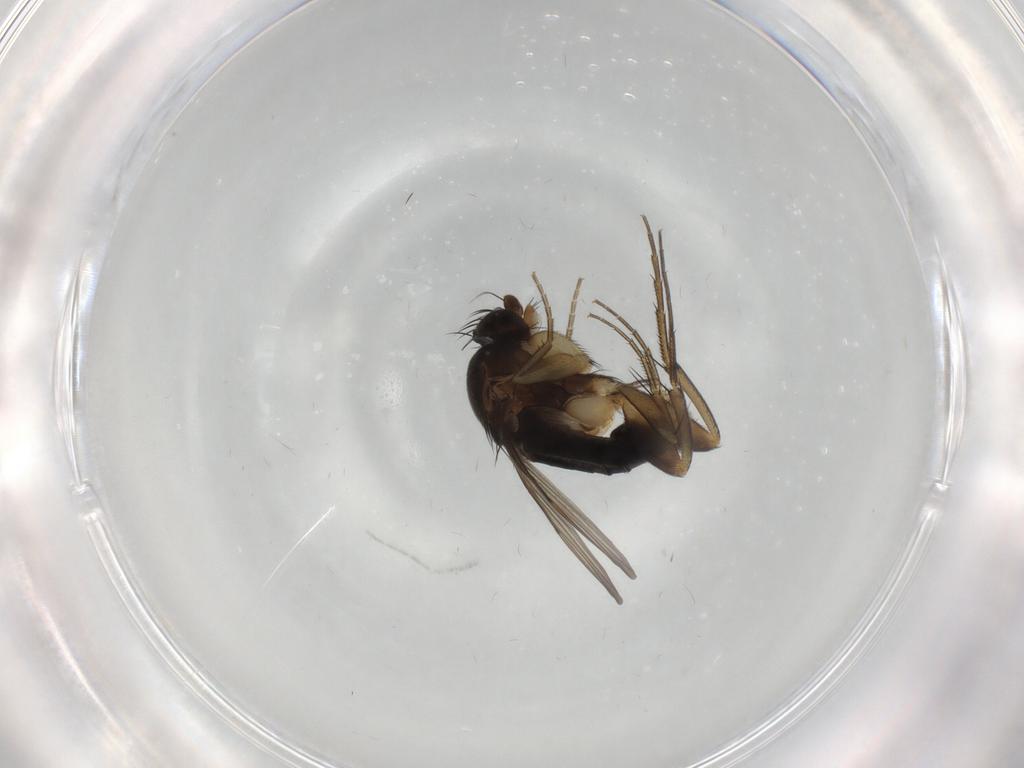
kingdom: Animalia
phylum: Arthropoda
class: Insecta
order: Diptera
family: Phoridae
